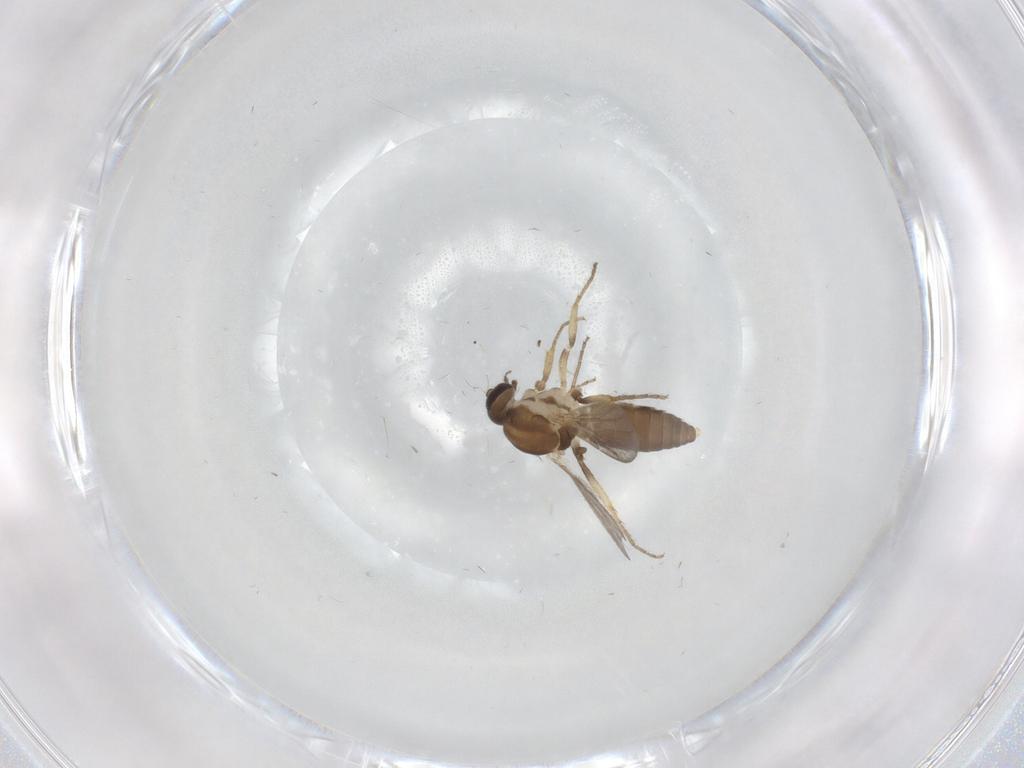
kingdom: Animalia
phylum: Arthropoda
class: Insecta
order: Diptera
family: Ceratopogonidae
